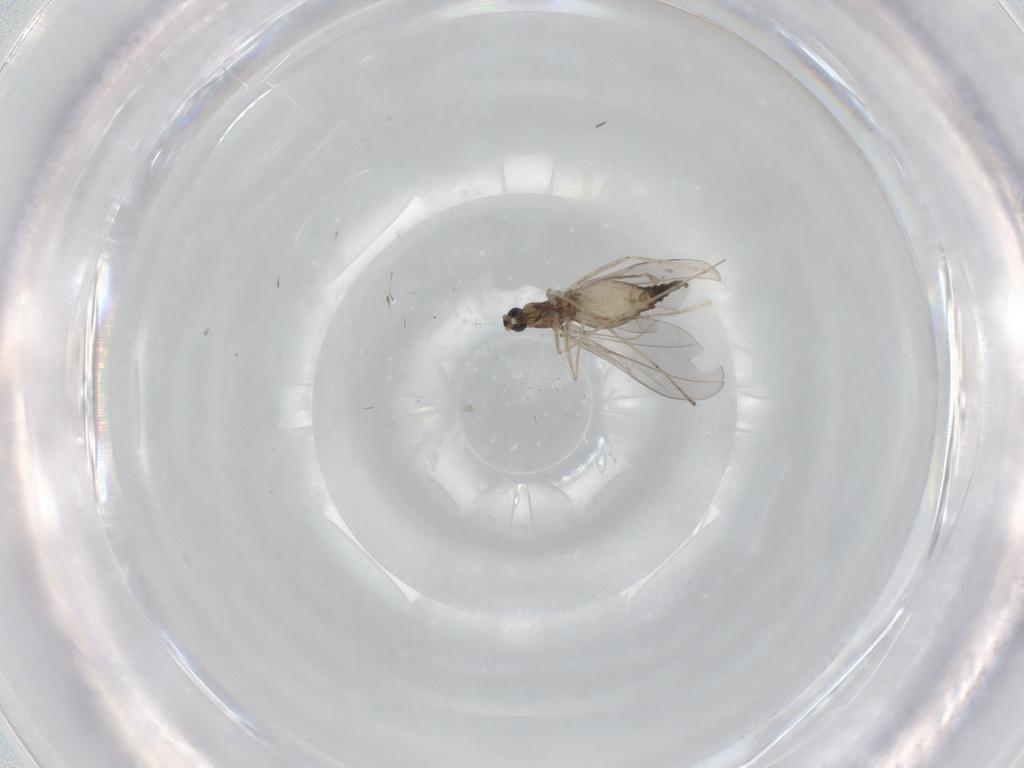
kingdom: Animalia
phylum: Arthropoda
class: Insecta
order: Diptera
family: Cecidomyiidae
